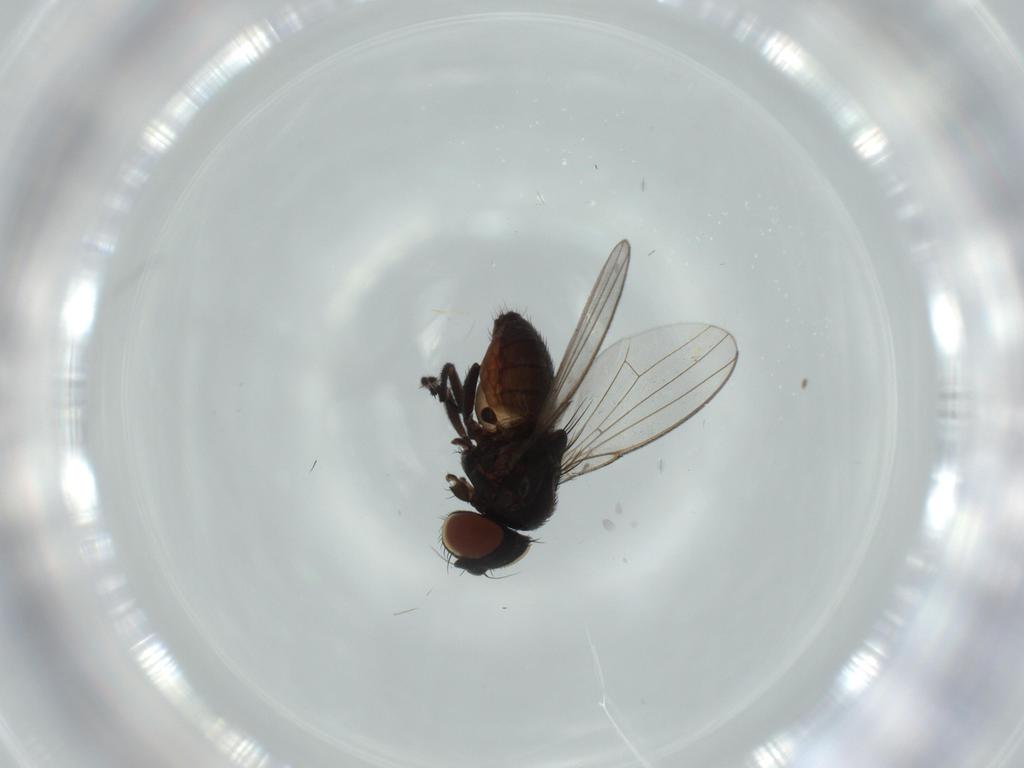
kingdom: Animalia
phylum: Arthropoda
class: Insecta
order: Diptera
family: Milichiidae
